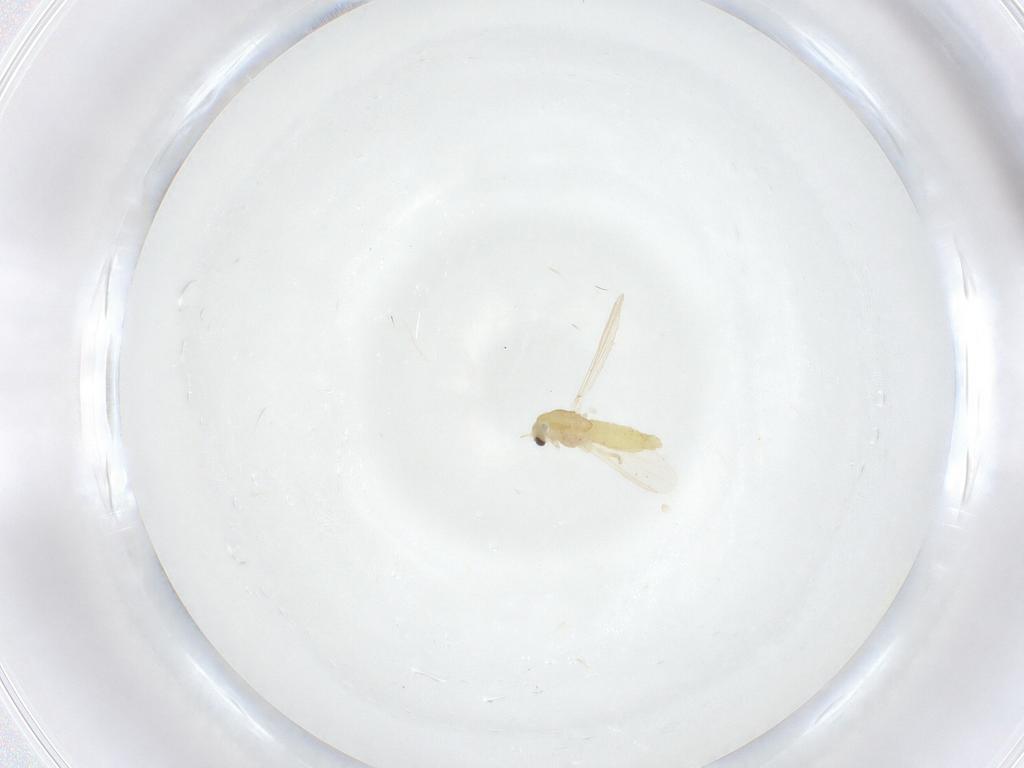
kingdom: Animalia
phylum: Arthropoda
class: Insecta
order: Diptera
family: Chironomidae
